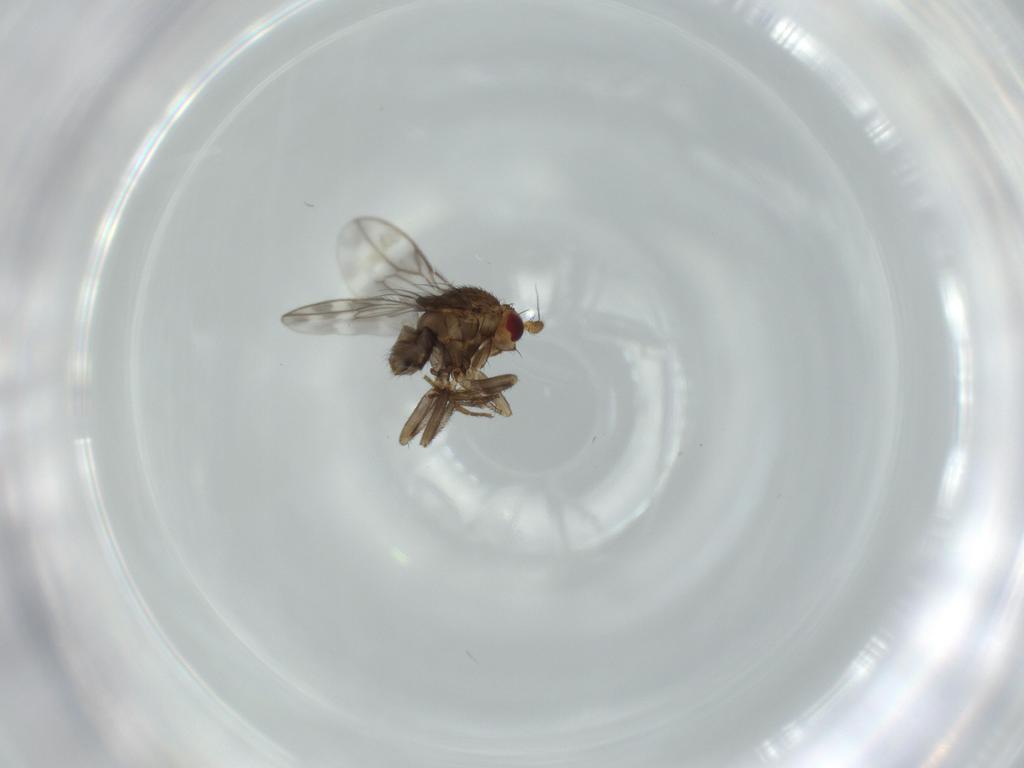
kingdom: Animalia
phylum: Arthropoda
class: Insecta
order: Diptera
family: Sphaeroceridae
